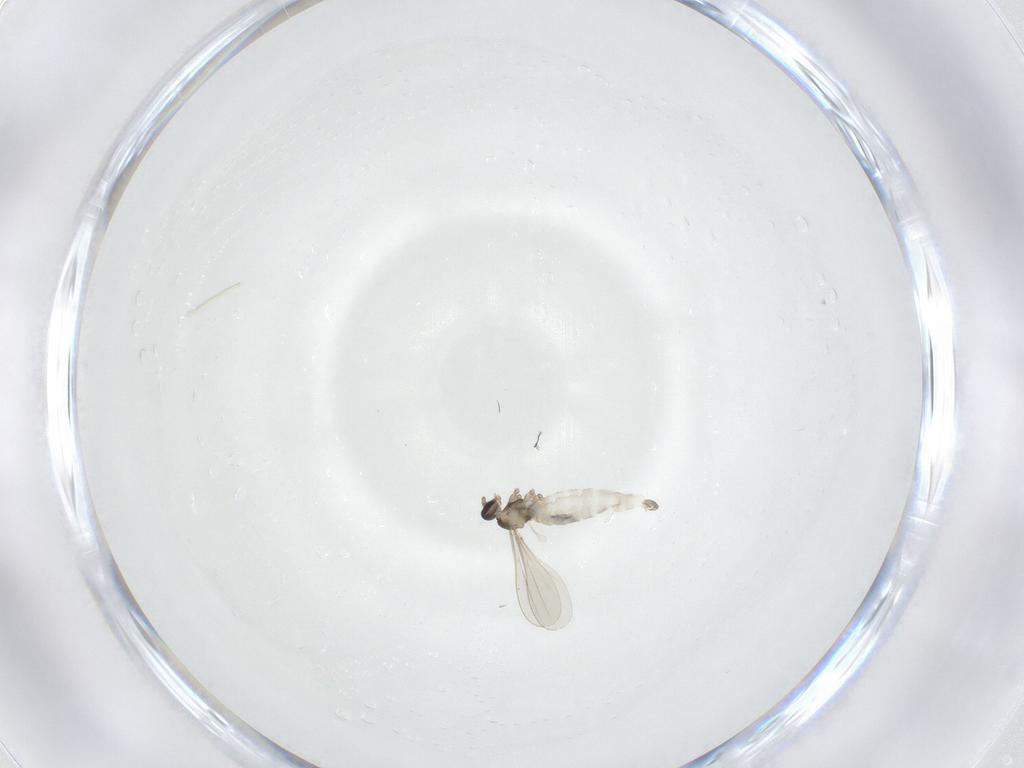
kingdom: Animalia
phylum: Arthropoda
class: Insecta
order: Diptera
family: Cecidomyiidae
